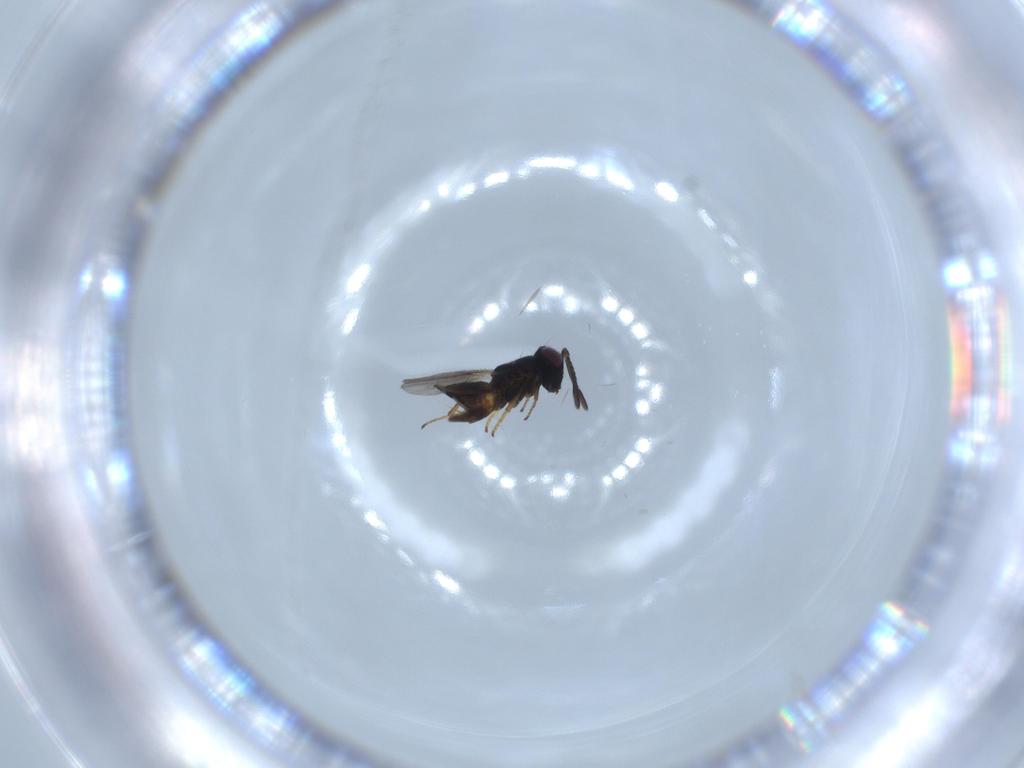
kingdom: Animalia
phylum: Arthropoda
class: Insecta
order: Hymenoptera
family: Encyrtidae
